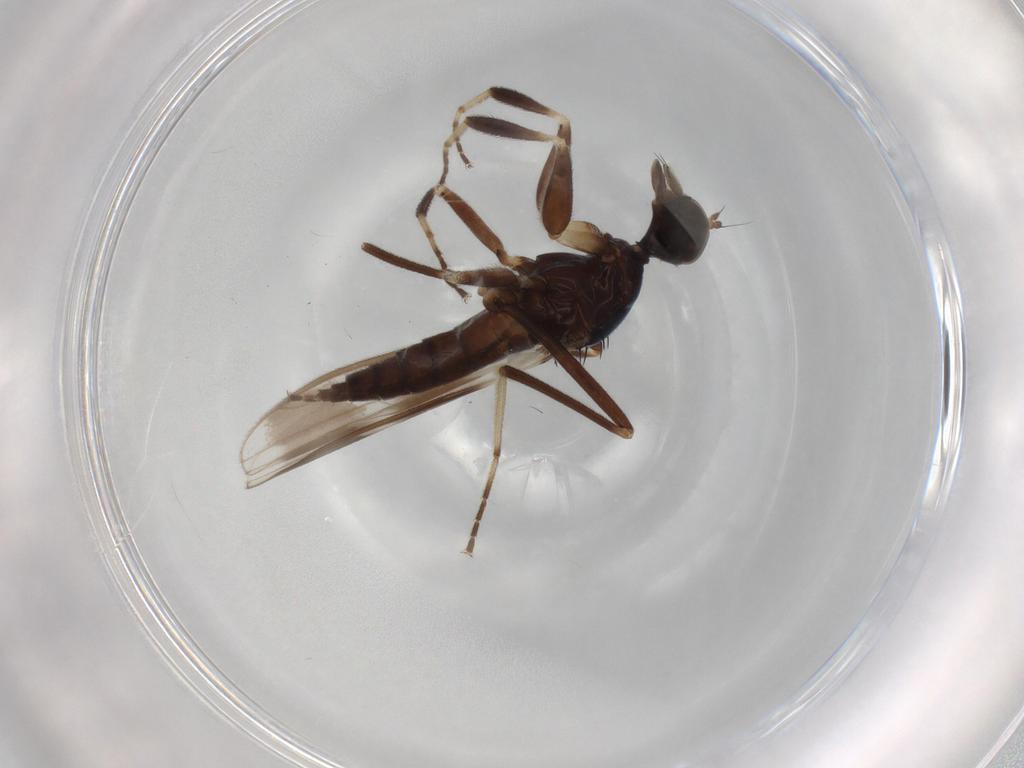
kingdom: Animalia
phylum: Arthropoda
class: Insecta
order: Diptera
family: Hybotidae
